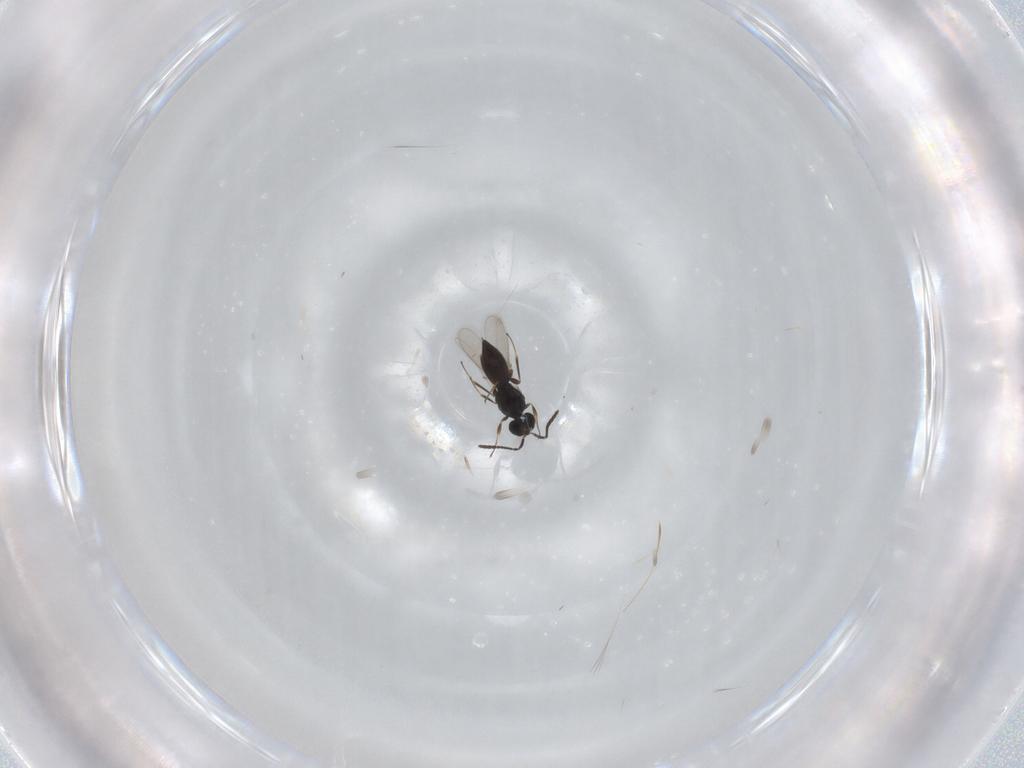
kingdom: Animalia
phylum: Arthropoda
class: Insecta
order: Hymenoptera
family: Scelionidae
